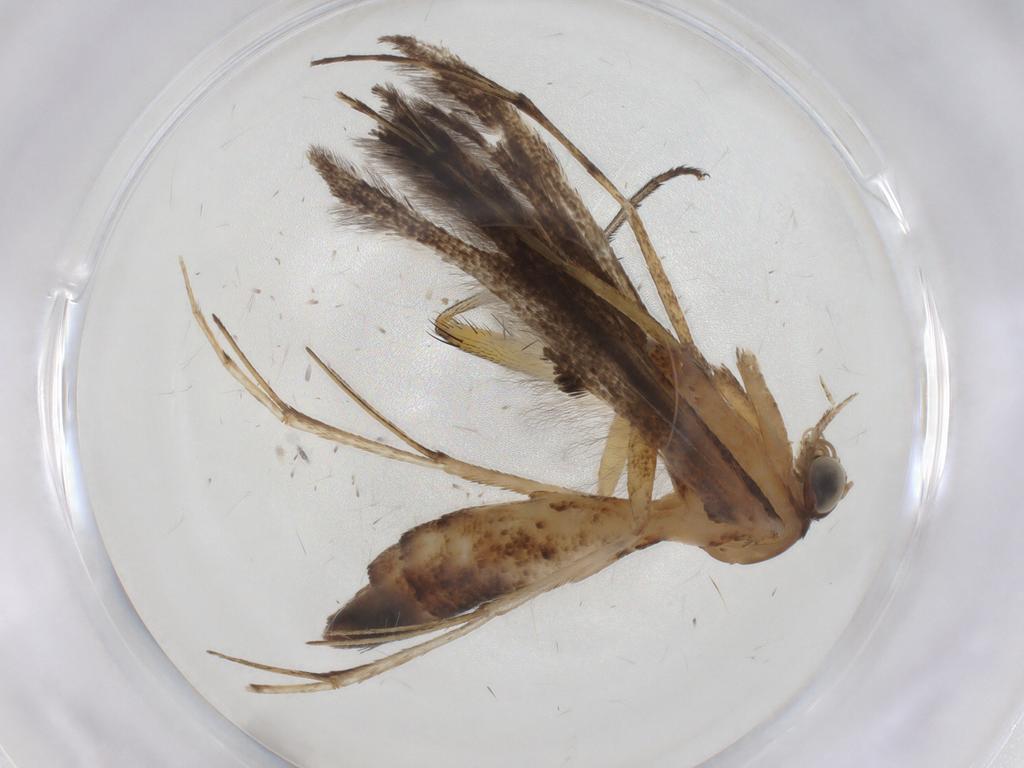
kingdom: Animalia
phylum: Arthropoda
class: Insecta
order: Lepidoptera
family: Pterophoridae
